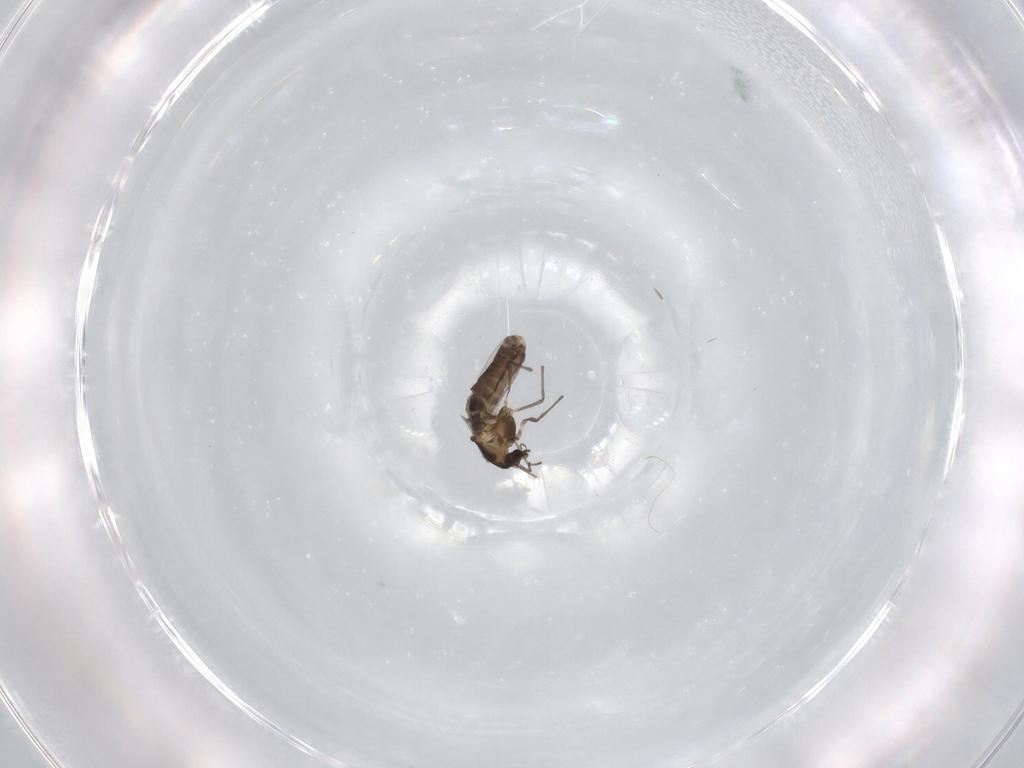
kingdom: Animalia
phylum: Arthropoda
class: Insecta
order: Diptera
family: Chironomidae
